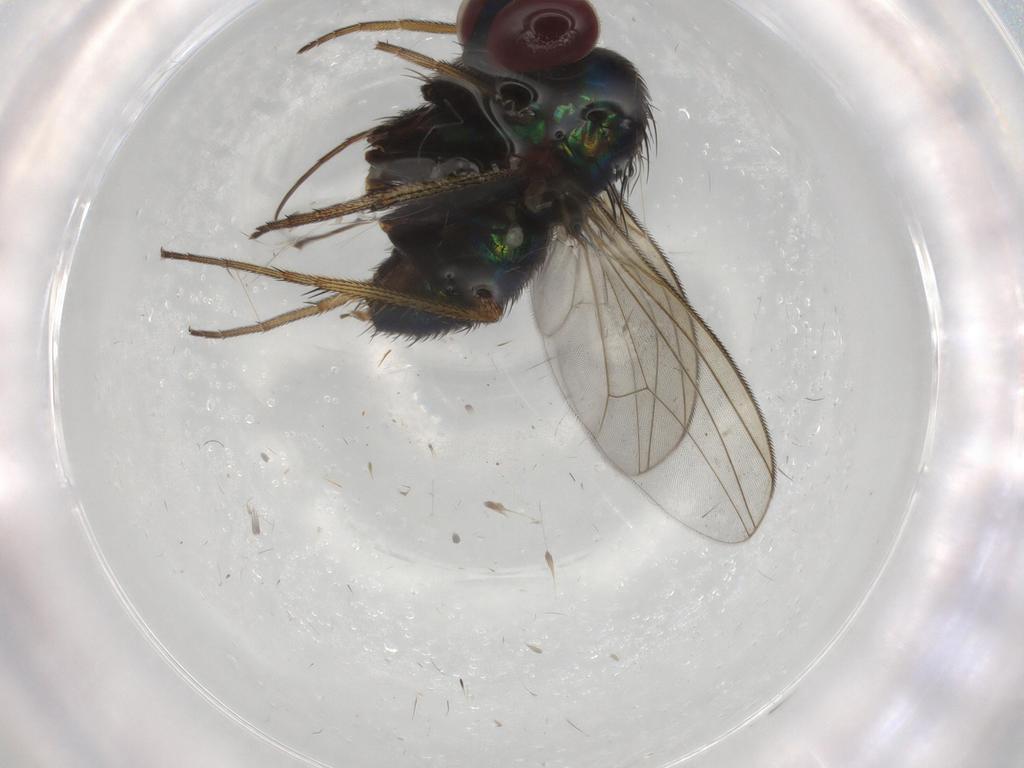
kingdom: Animalia
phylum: Arthropoda
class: Insecta
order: Diptera
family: Dolichopodidae
